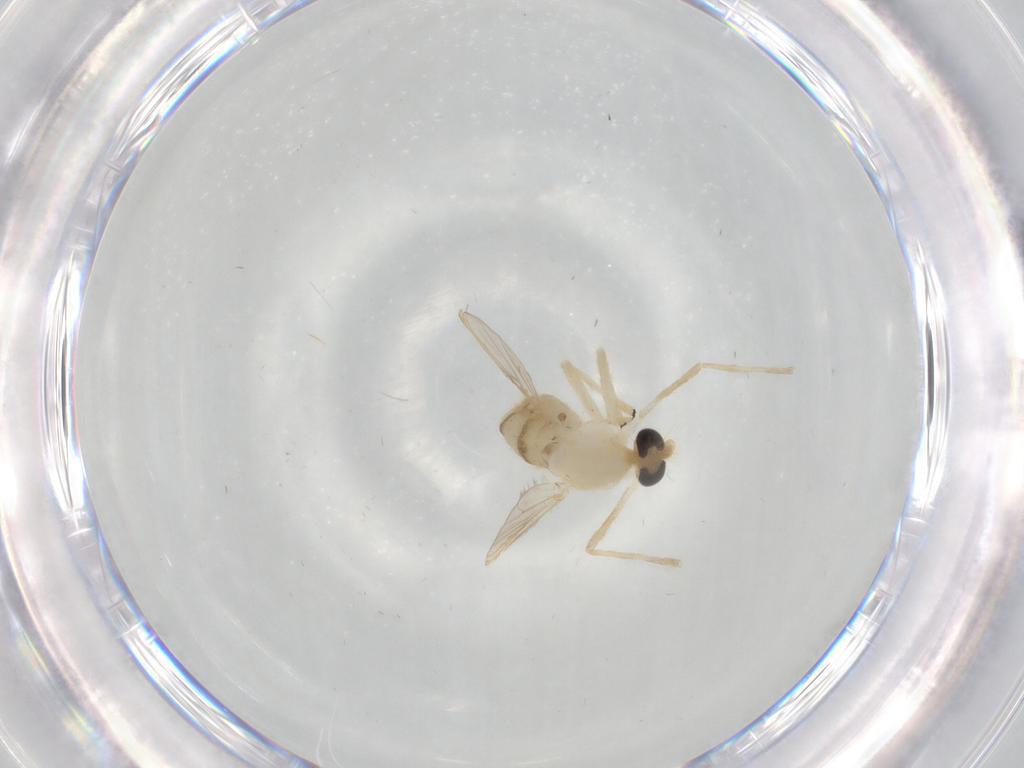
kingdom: Animalia
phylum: Arthropoda
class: Insecta
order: Diptera
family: Chironomidae
